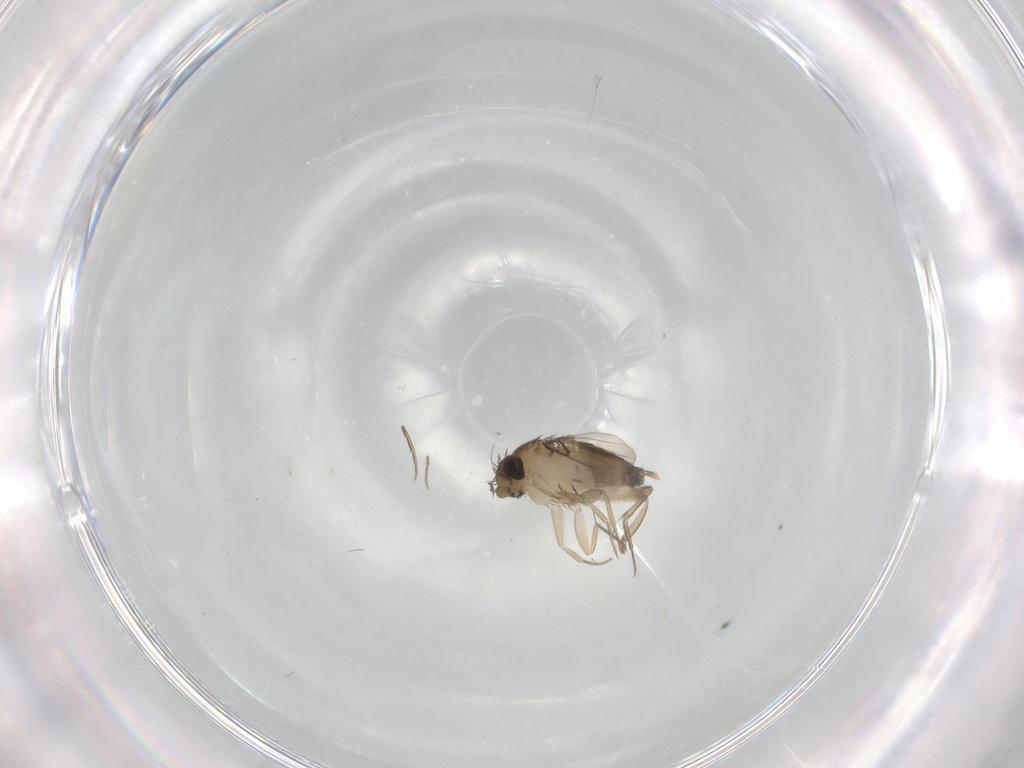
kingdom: Animalia
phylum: Arthropoda
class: Insecta
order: Diptera
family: Phoridae
